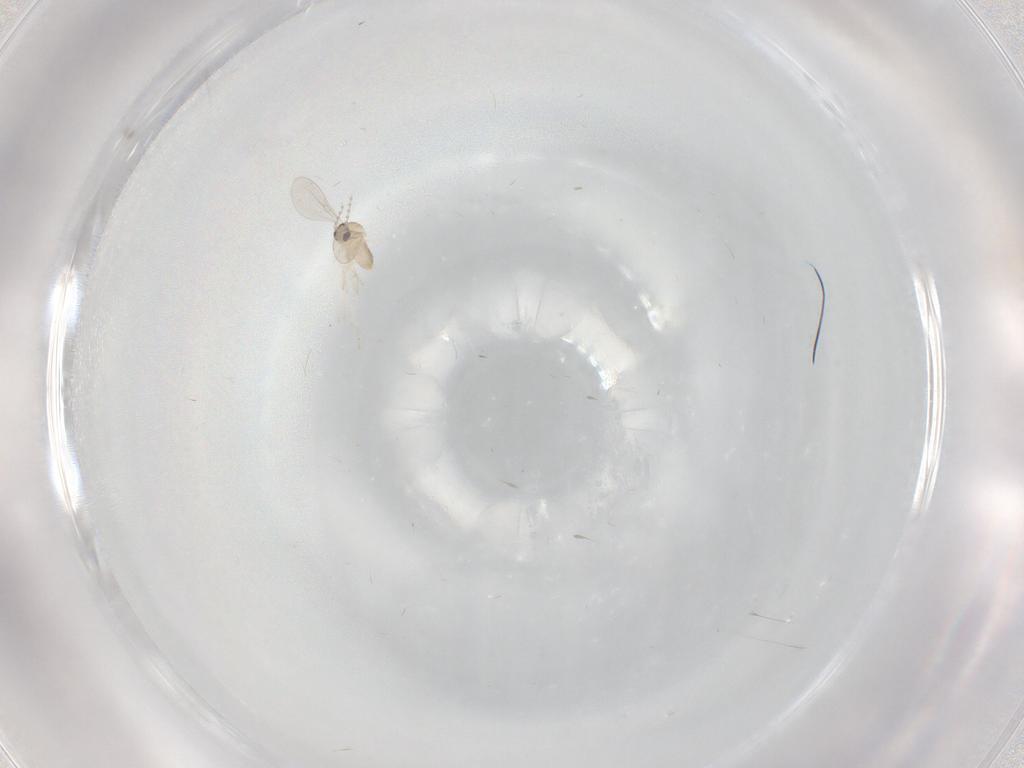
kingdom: Animalia
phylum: Arthropoda
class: Insecta
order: Diptera
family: Cecidomyiidae
